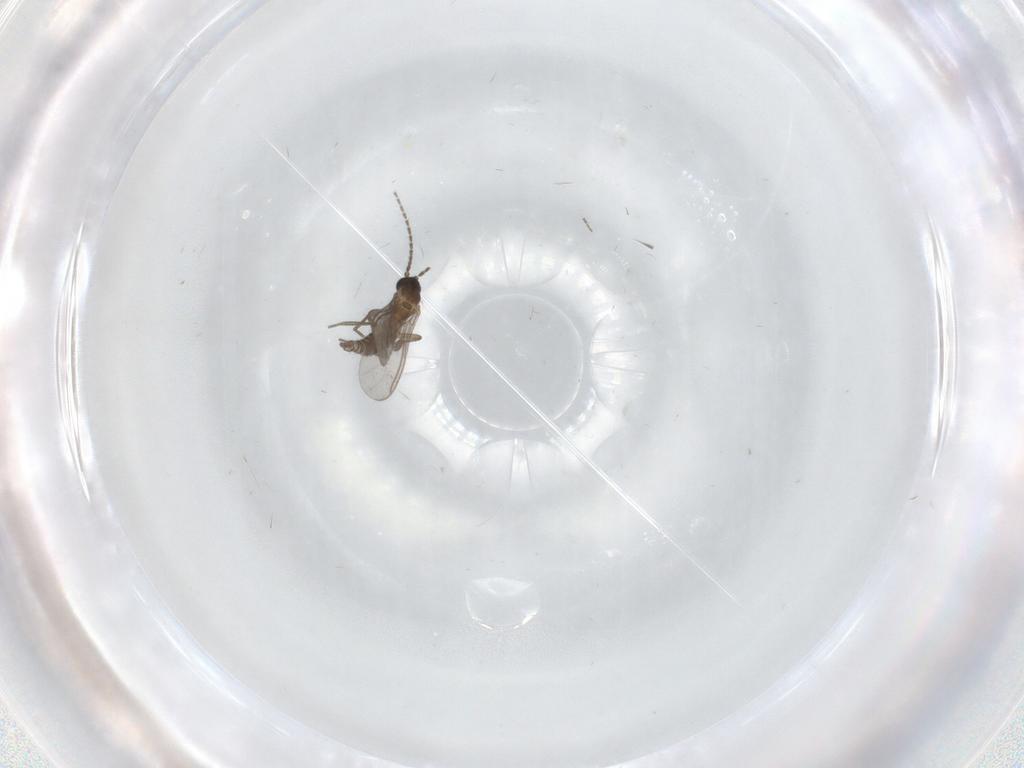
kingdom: Animalia
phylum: Arthropoda
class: Insecta
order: Diptera
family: Sciaridae
